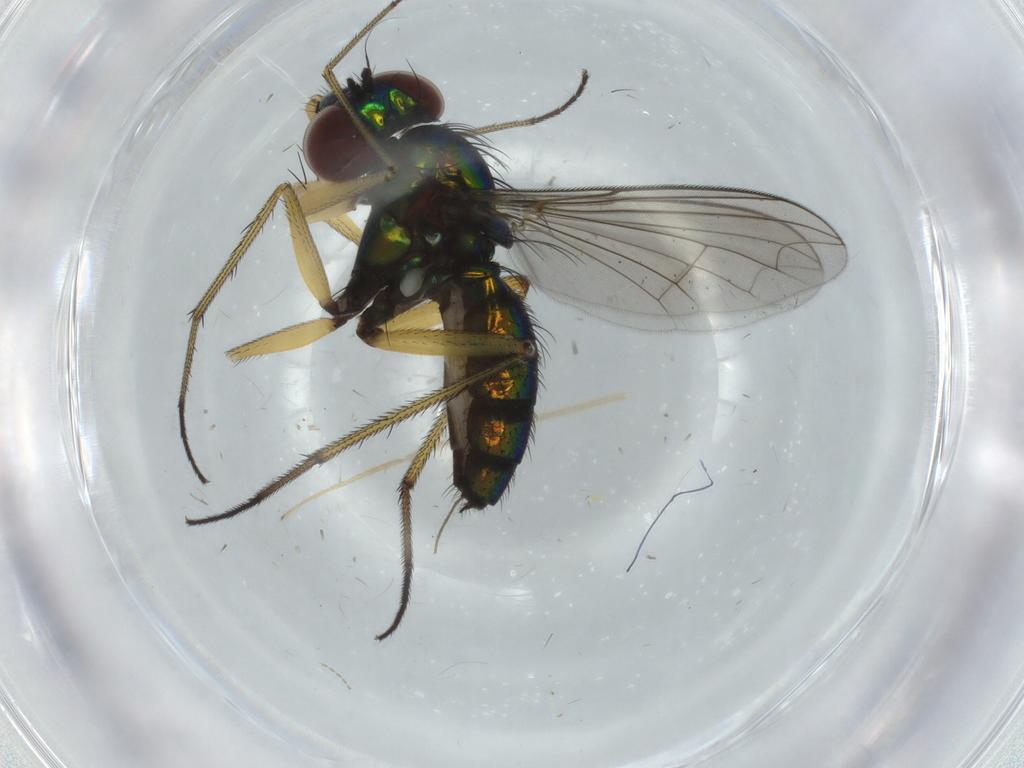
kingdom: Animalia
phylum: Arthropoda
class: Insecta
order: Diptera
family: Dolichopodidae
